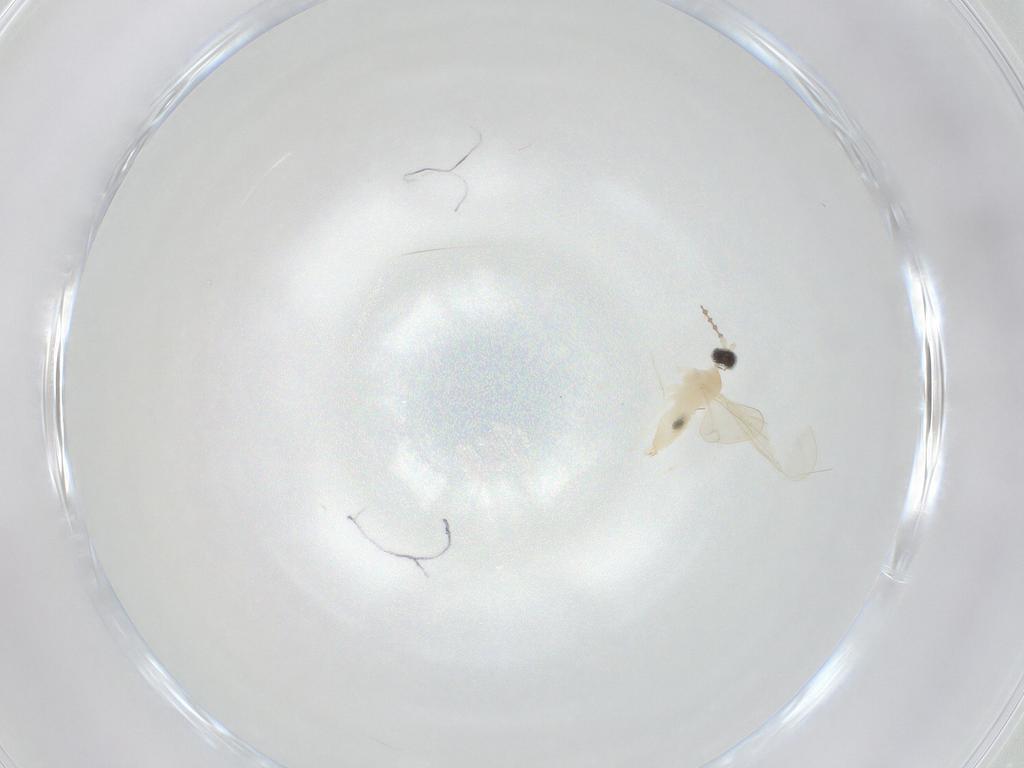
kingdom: Animalia
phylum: Arthropoda
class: Insecta
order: Diptera
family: Cecidomyiidae
